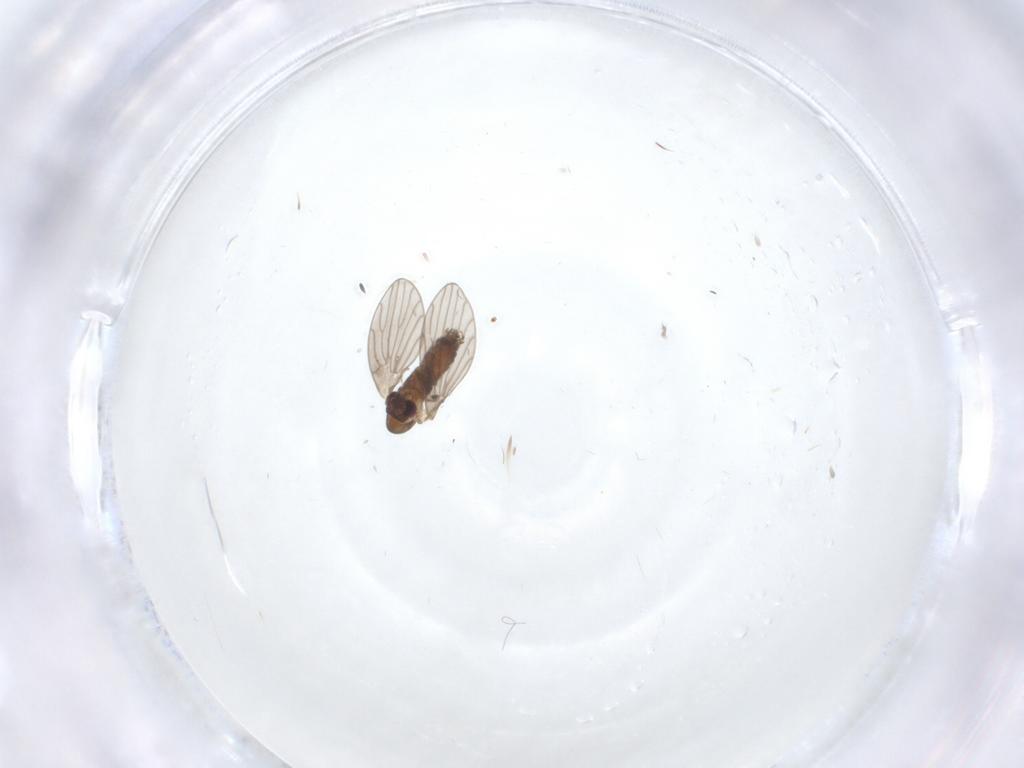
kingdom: Animalia
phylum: Arthropoda
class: Insecta
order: Diptera
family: Psychodidae
